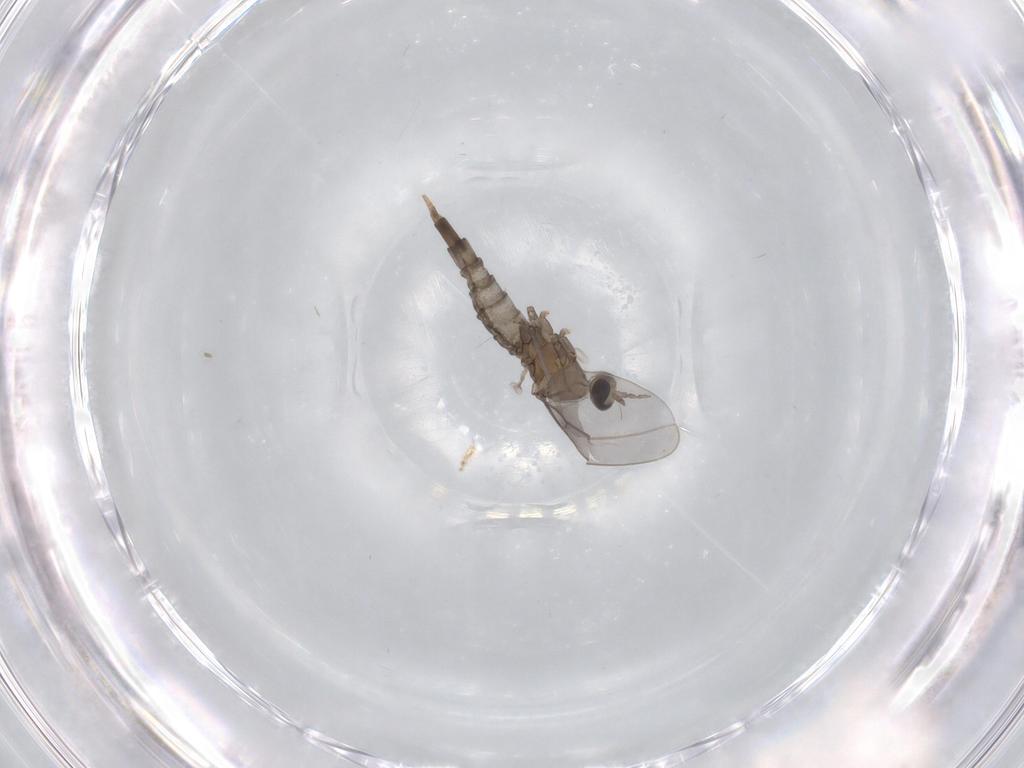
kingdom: Animalia
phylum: Arthropoda
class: Insecta
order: Diptera
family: Cecidomyiidae
